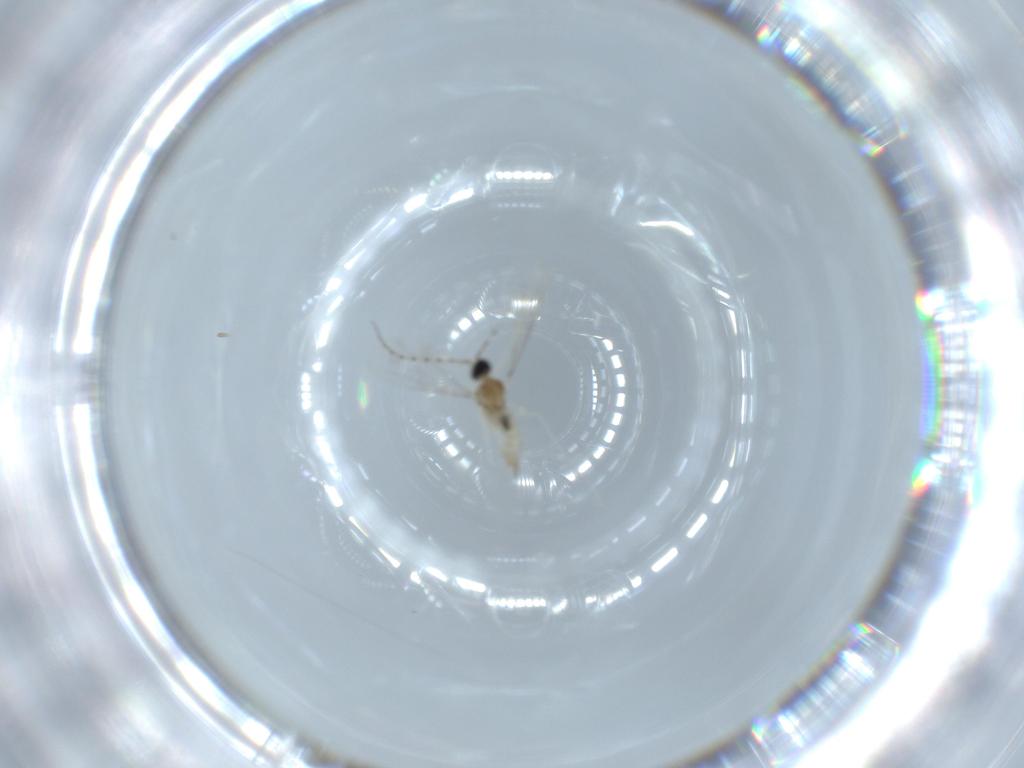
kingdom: Animalia
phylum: Arthropoda
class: Insecta
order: Diptera
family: Cecidomyiidae
